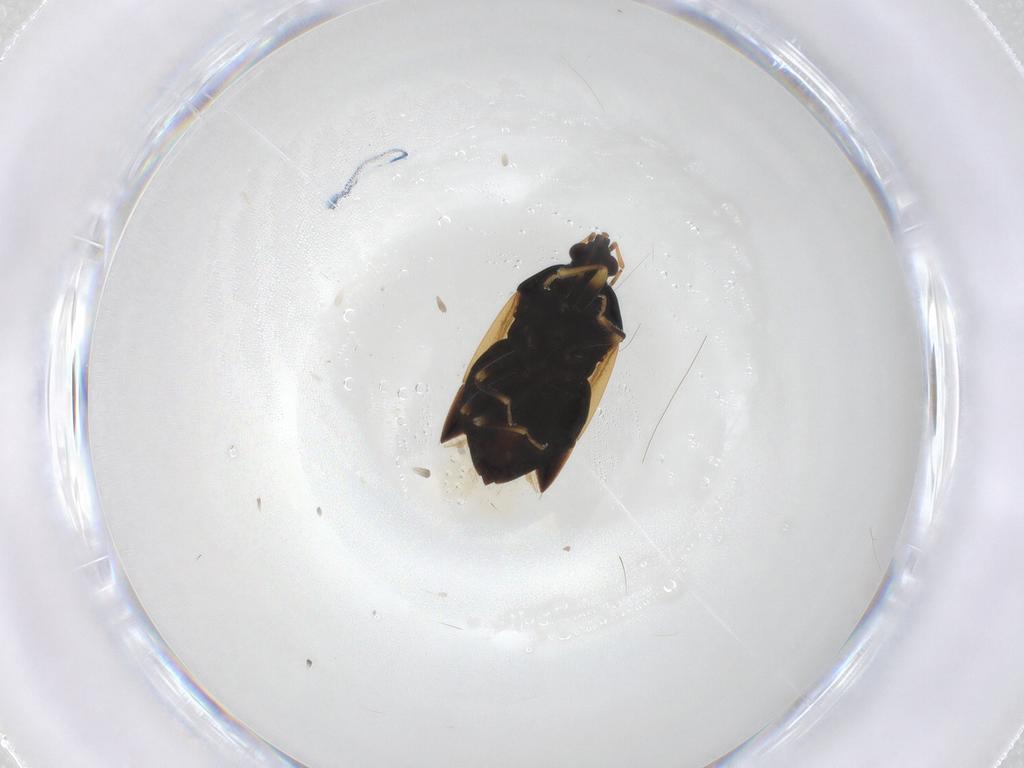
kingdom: Animalia
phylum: Arthropoda
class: Insecta
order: Hemiptera
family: Anthocoridae
